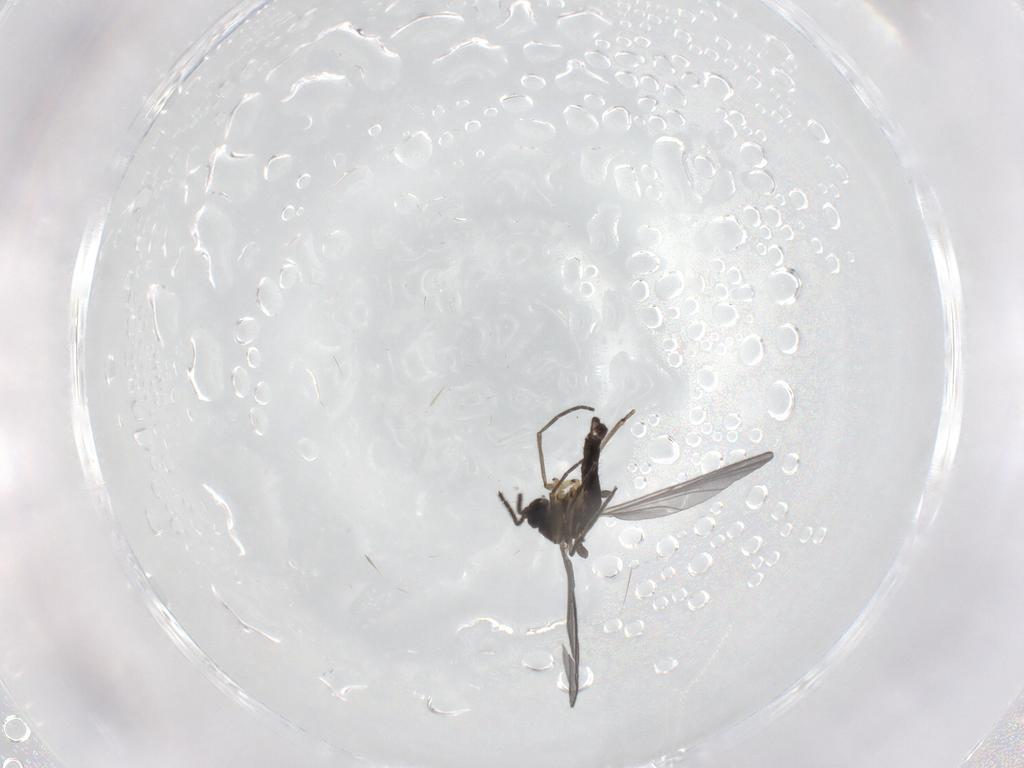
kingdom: Animalia
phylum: Arthropoda
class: Insecta
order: Diptera
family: Sciaridae
